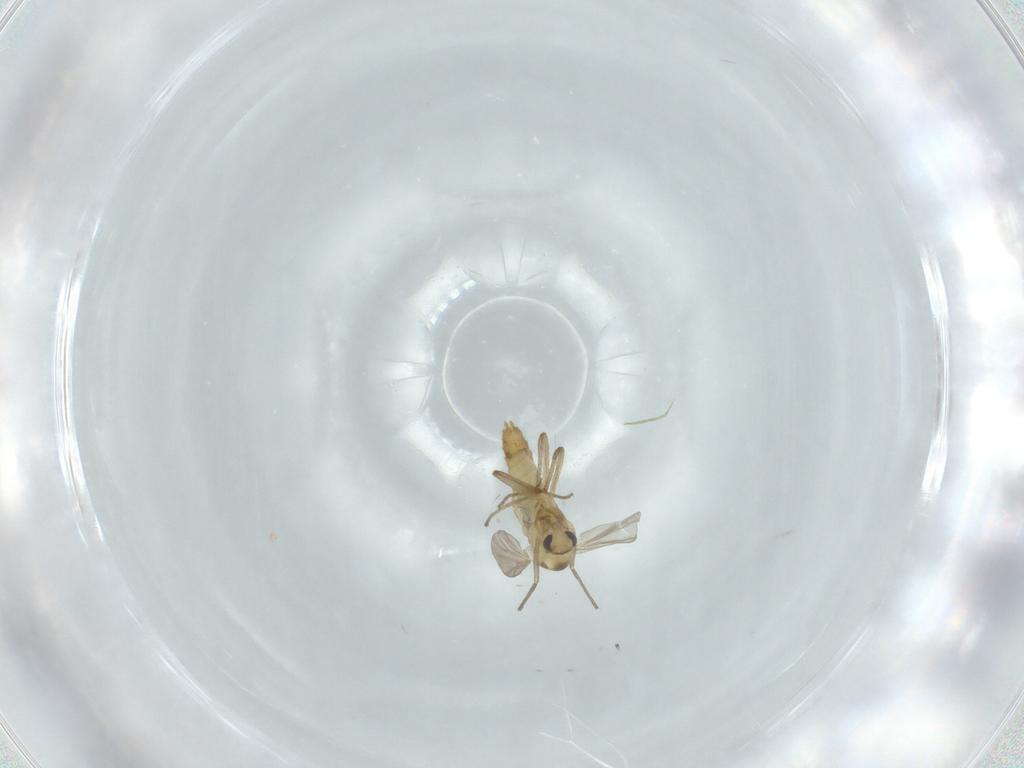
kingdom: Animalia
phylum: Arthropoda
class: Insecta
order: Diptera
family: Chironomidae
